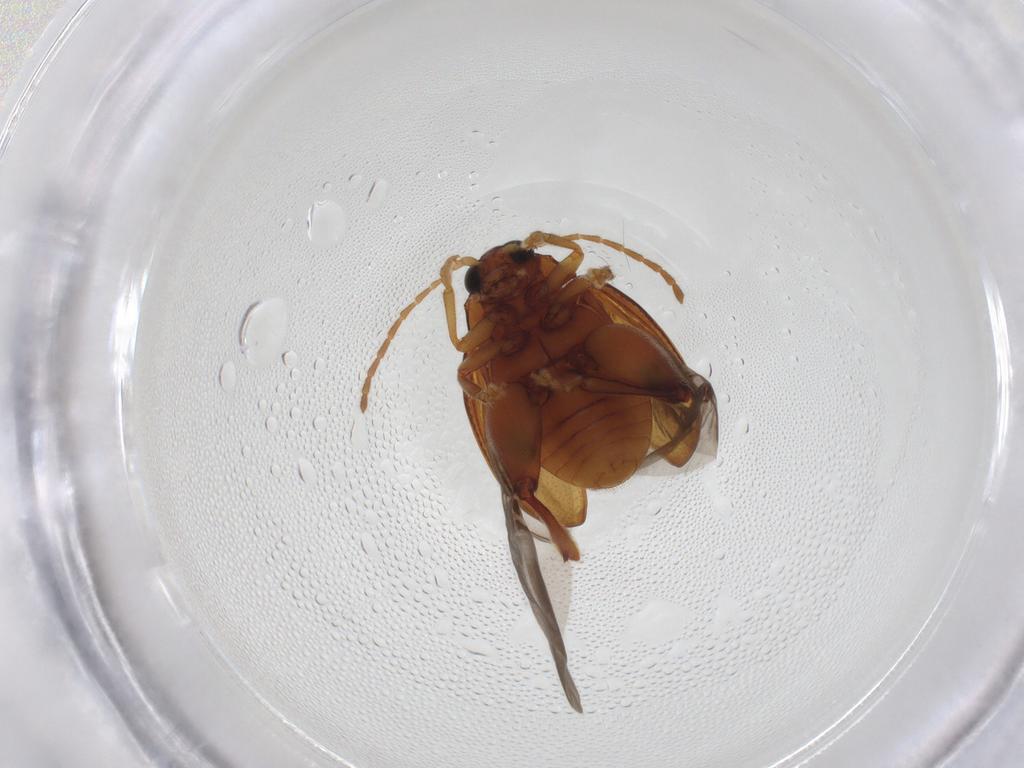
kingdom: Animalia
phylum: Arthropoda
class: Insecta
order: Coleoptera
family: Chrysomelidae
